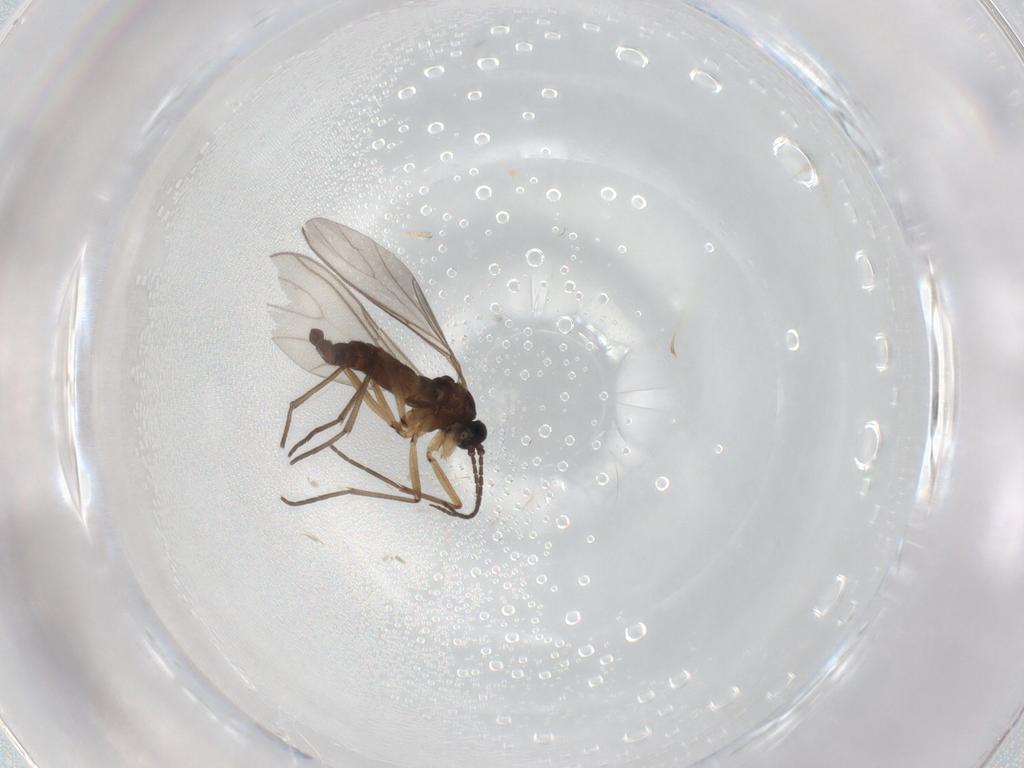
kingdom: Animalia
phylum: Arthropoda
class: Insecta
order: Diptera
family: Sciaridae
